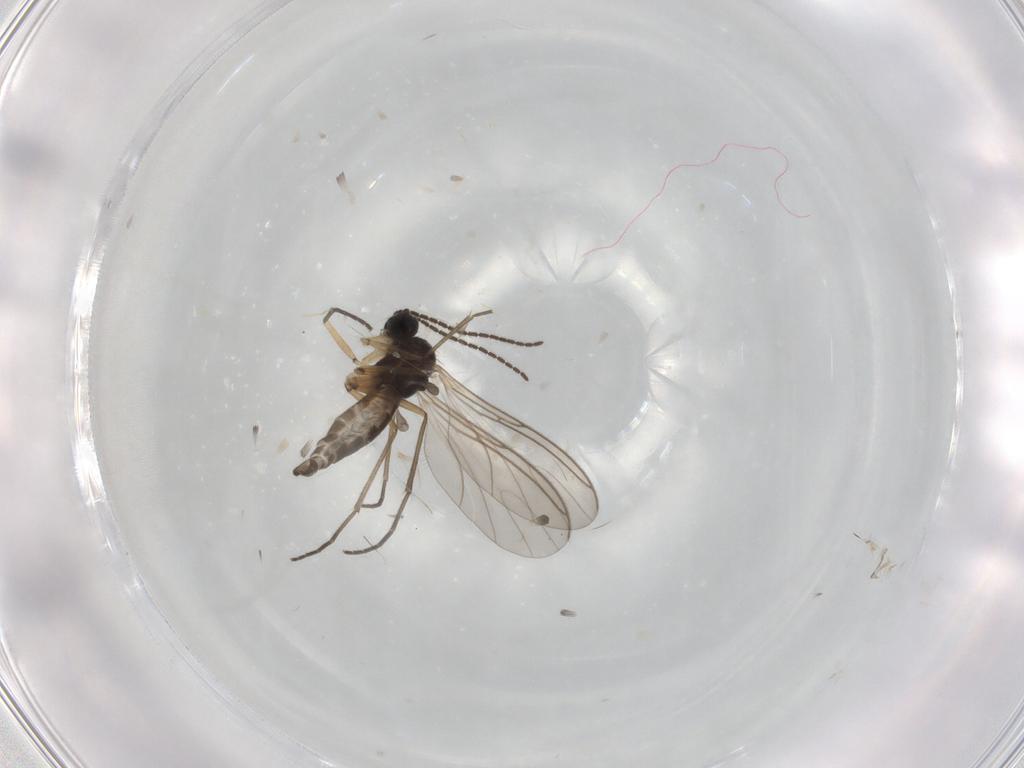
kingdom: Animalia
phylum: Arthropoda
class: Insecta
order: Diptera
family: Sciaridae
